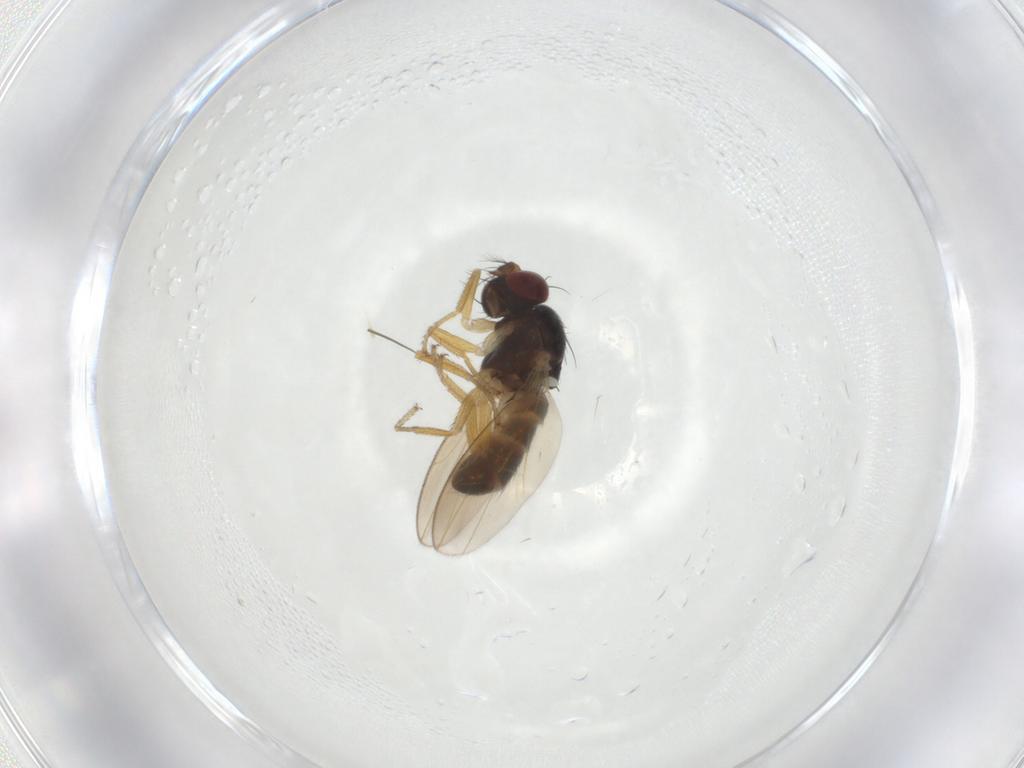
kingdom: Animalia
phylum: Arthropoda
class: Insecta
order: Diptera
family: Ephydridae
